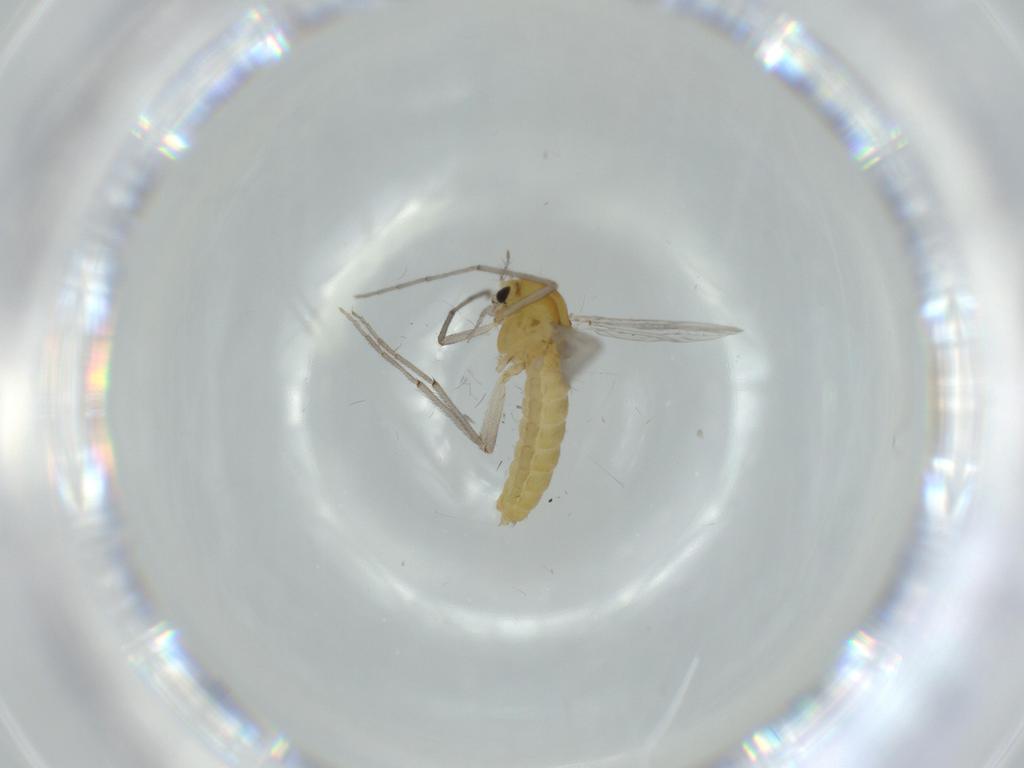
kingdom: Animalia
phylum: Arthropoda
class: Insecta
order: Diptera
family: Chironomidae
